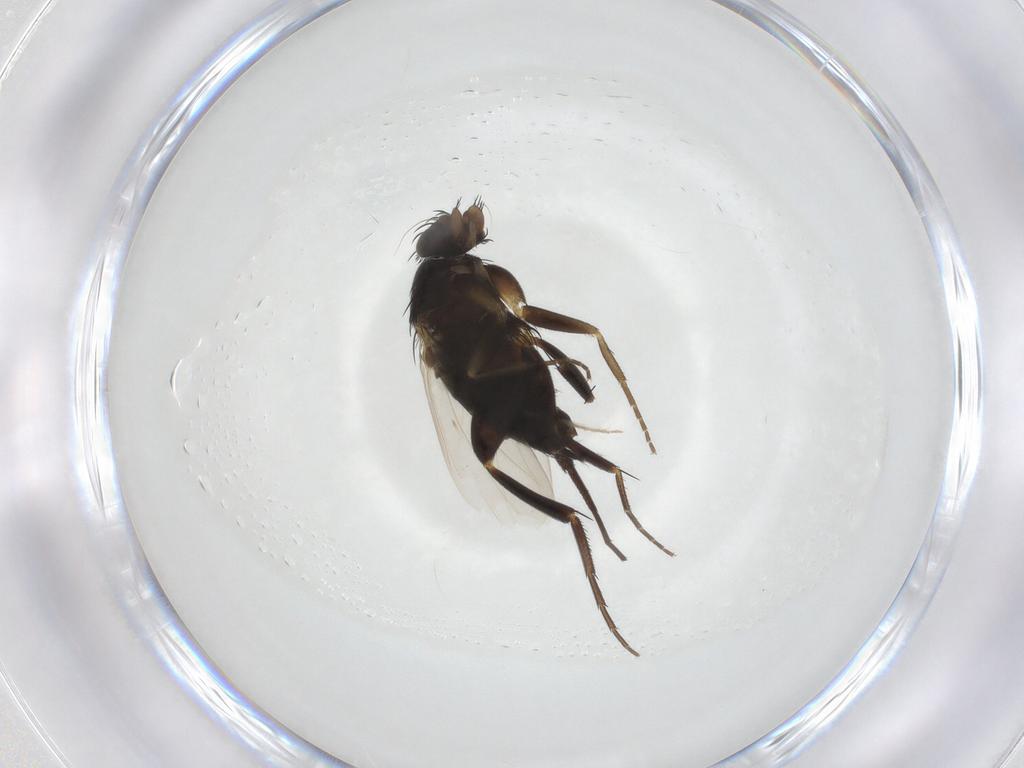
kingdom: Animalia
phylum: Arthropoda
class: Insecta
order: Diptera
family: Phoridae
